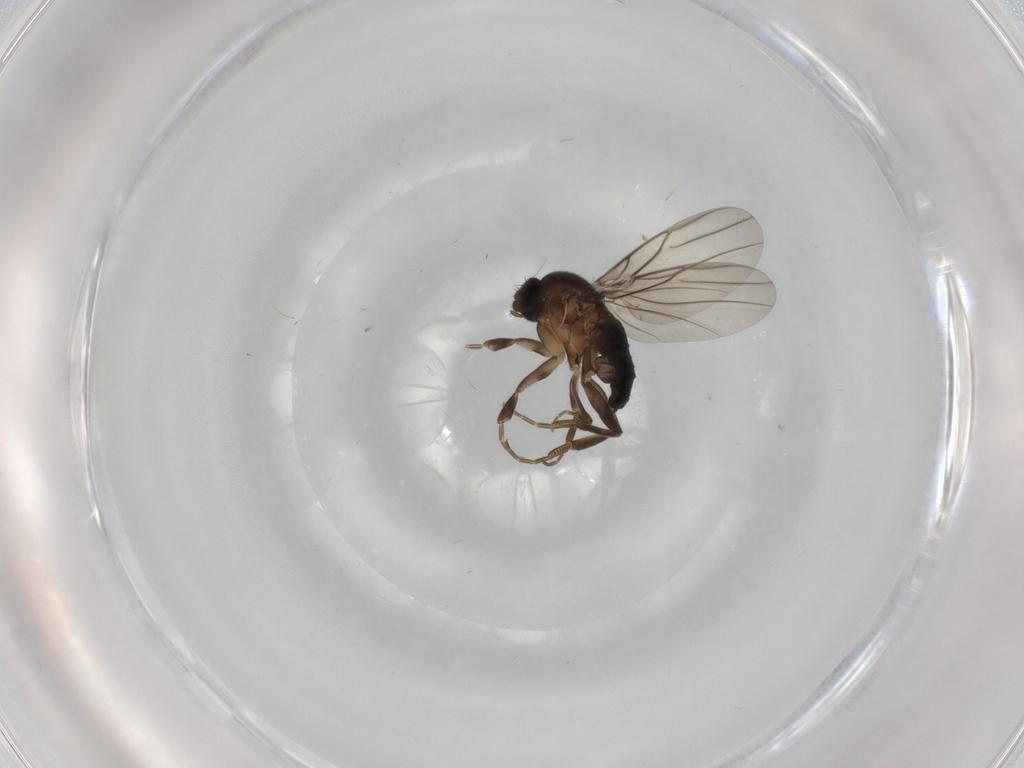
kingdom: Animalia
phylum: Arthropoda
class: Insecta
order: Diptera
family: Phoridae
